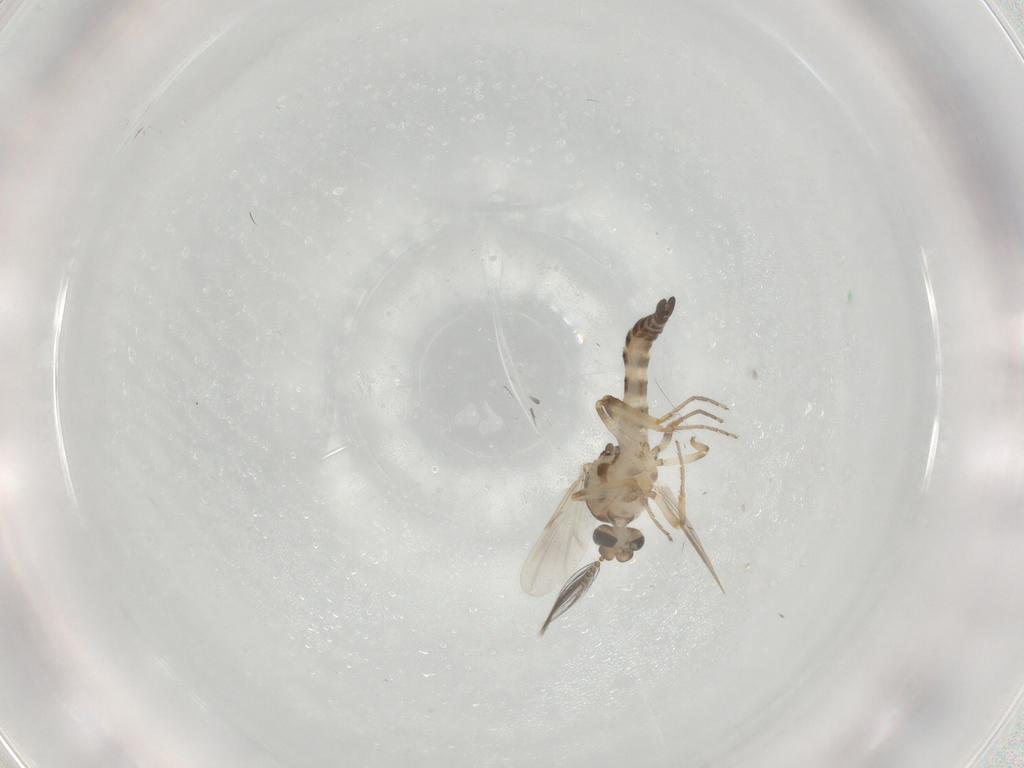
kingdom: Animalia
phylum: Arthropoda
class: Insecta
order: Diptera
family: Ceratopogonidae
